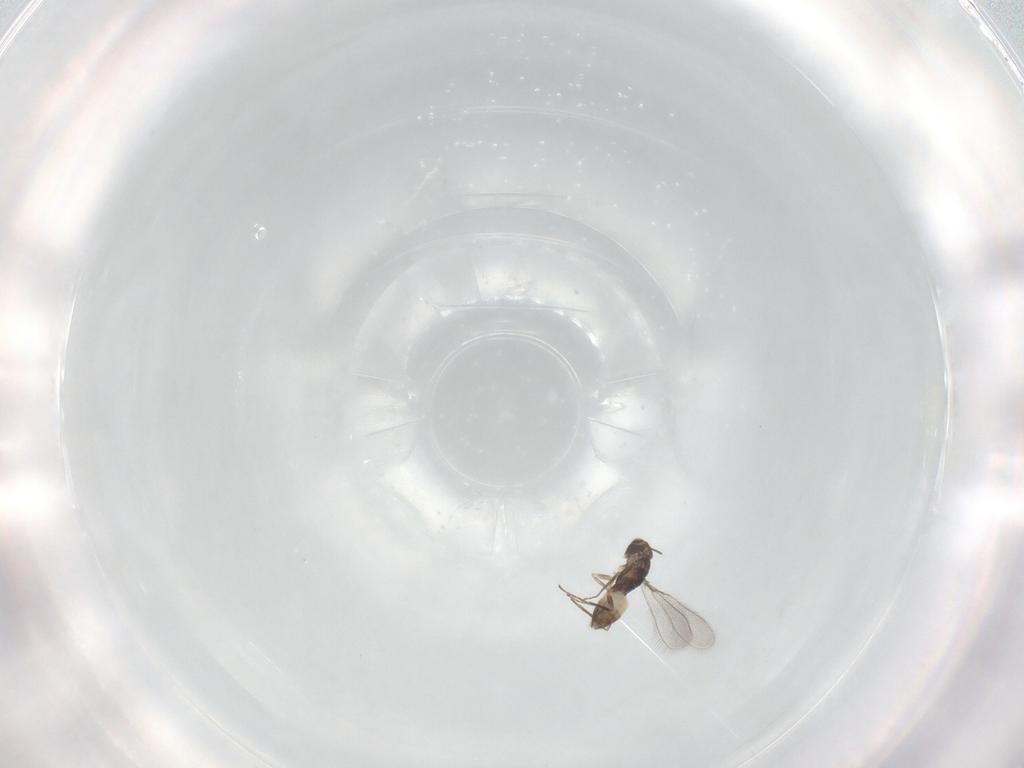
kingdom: Animalia
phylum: Arthropoda
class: Insecta
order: Hymenoptera
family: Mymaridae
